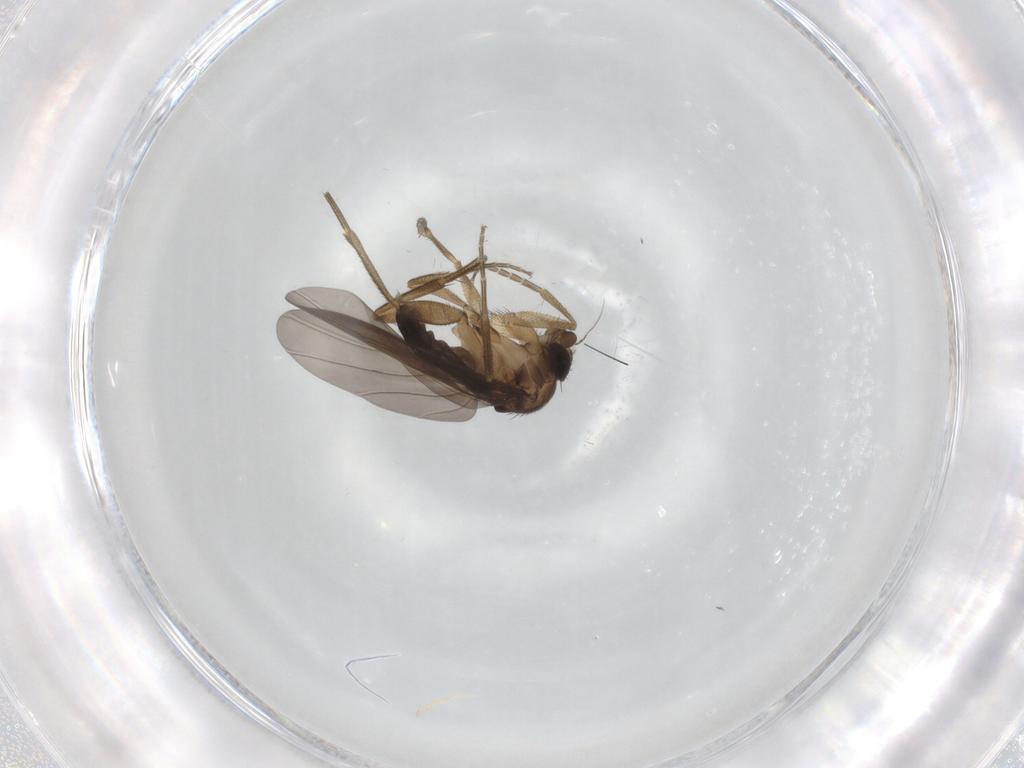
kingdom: Animalia
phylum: Arthropoda
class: Insecta
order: Diptera
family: Phoridae
